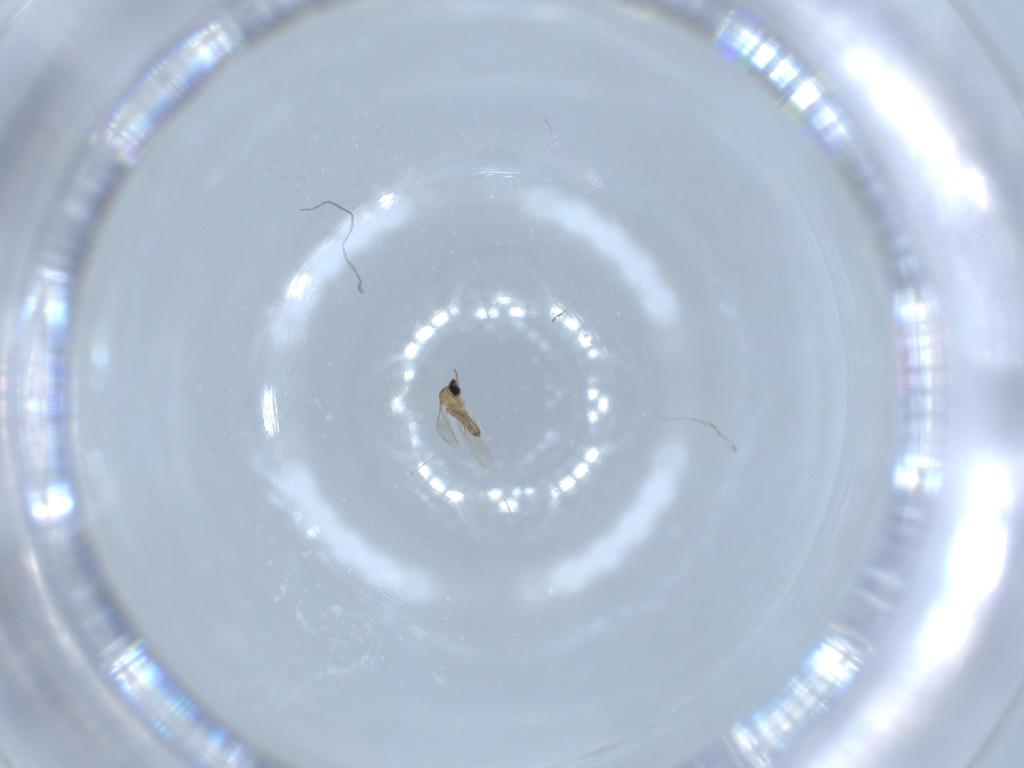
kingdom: Animalia
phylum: Arthropoda
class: Insecta
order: Diptera
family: Cecidomyiidae
